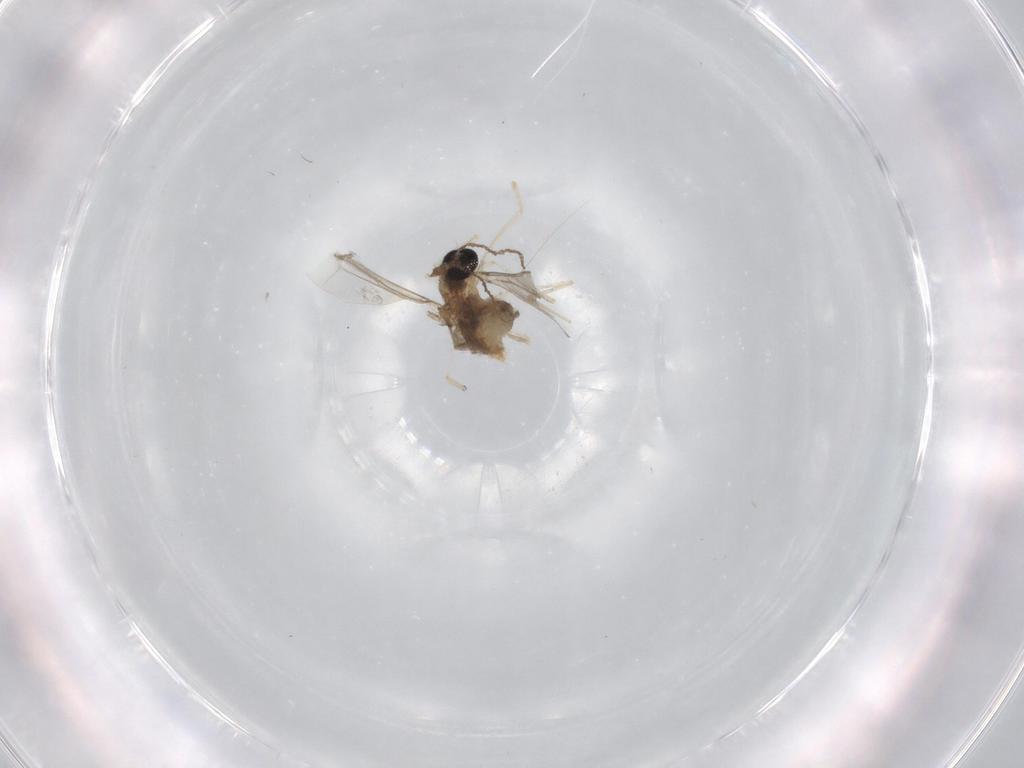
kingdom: Animalia
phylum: Arthropoda
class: Insecta
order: Diptera
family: Cecidomyiidae
